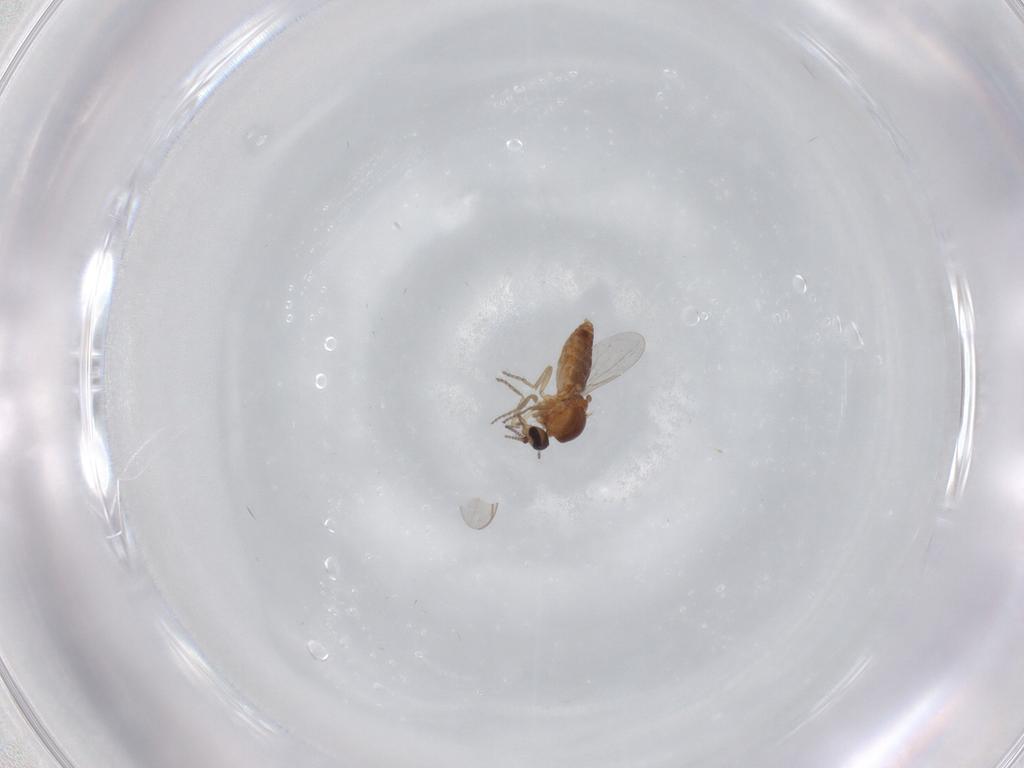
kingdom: Animalia
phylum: Arthropoda
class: Insecta
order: Diptera
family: Ceratopogonidae
